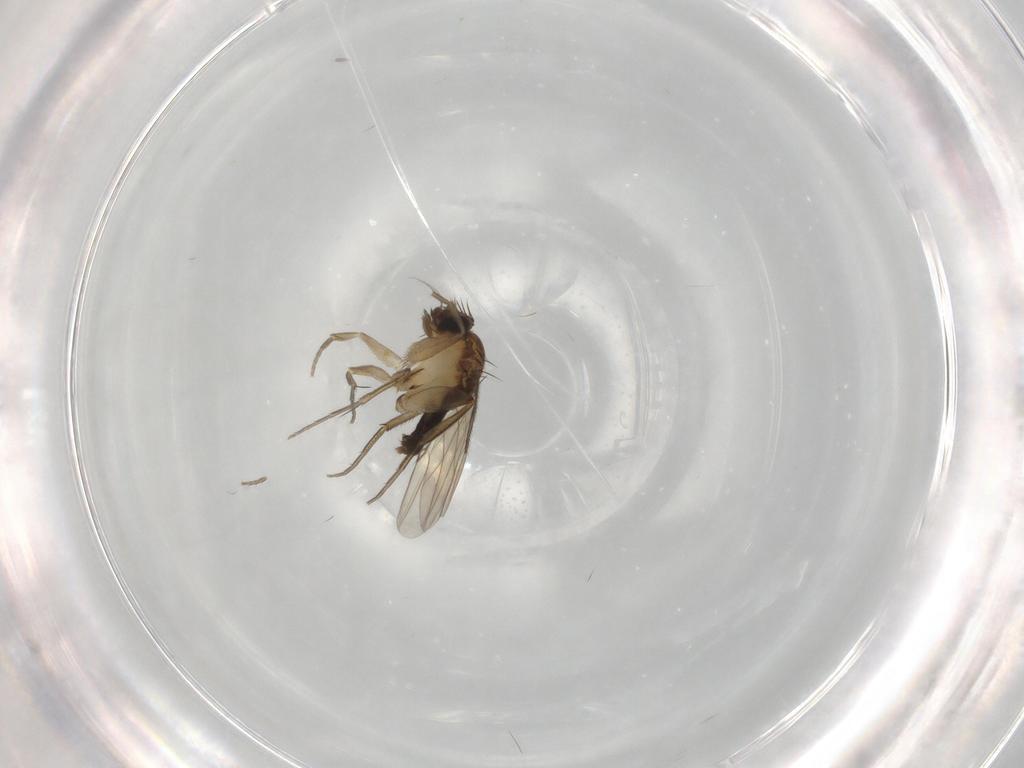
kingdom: Animalia
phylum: Arthropoda
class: Insecta
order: Diptera
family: Phoridae
